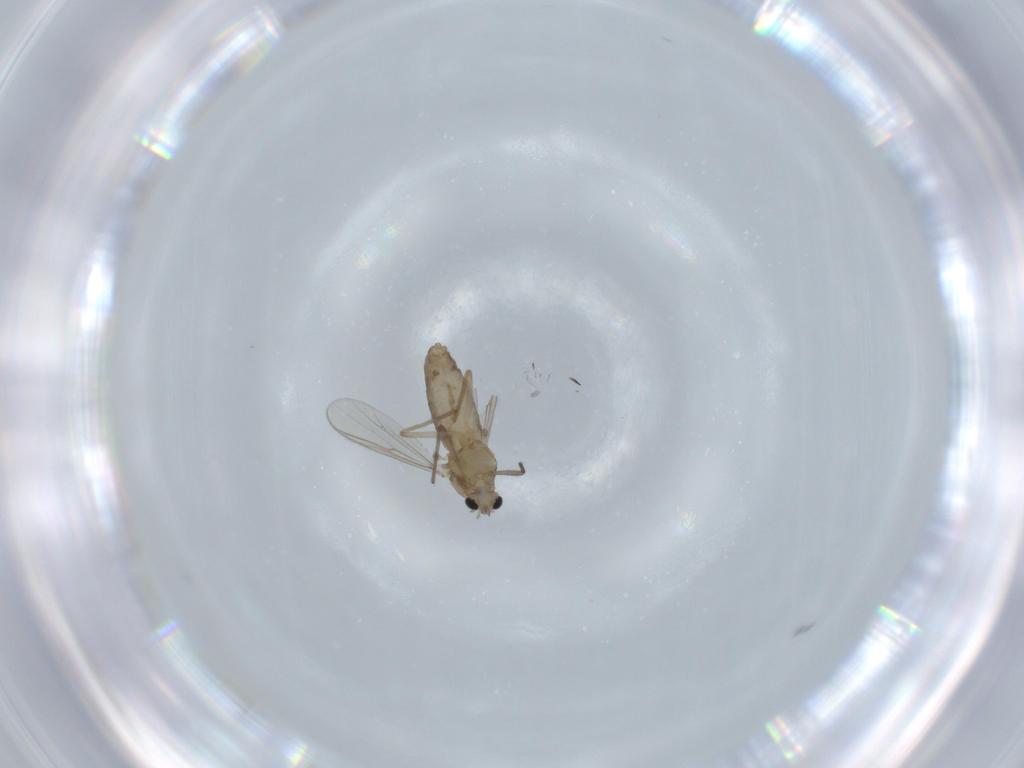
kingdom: Animalia
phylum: Arthropoda
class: Insecta
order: Diptera
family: Chironomidae
